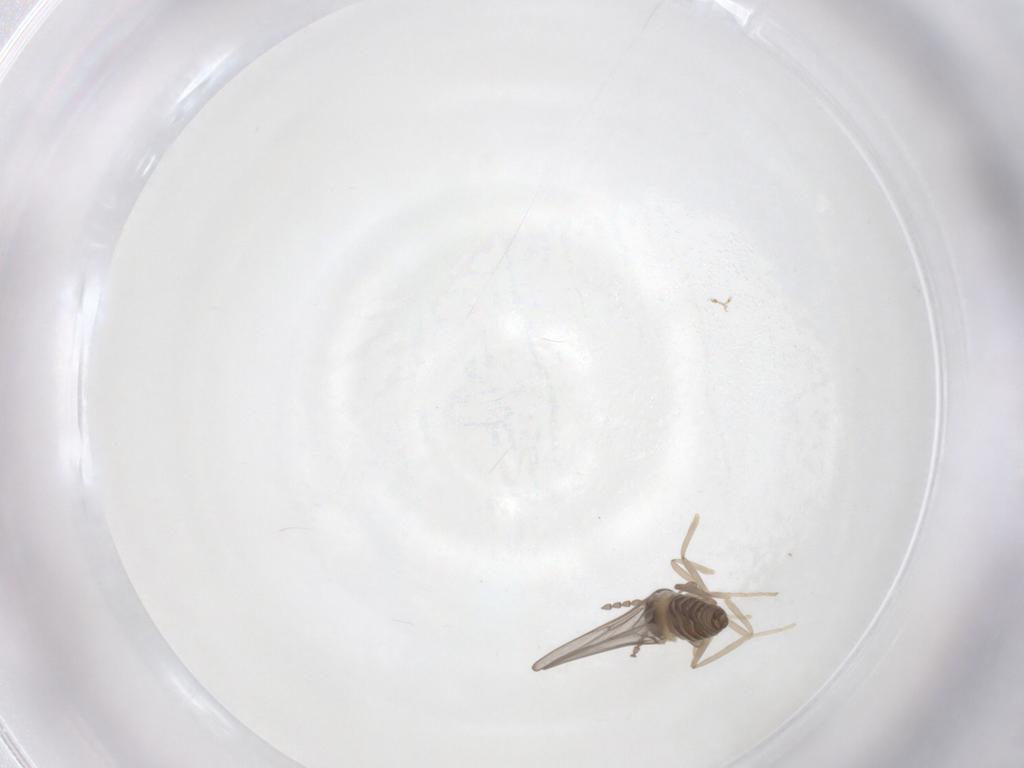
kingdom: Animalia
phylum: Arthropoda
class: Insecta
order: Diptera
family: Cecidomyiidae
